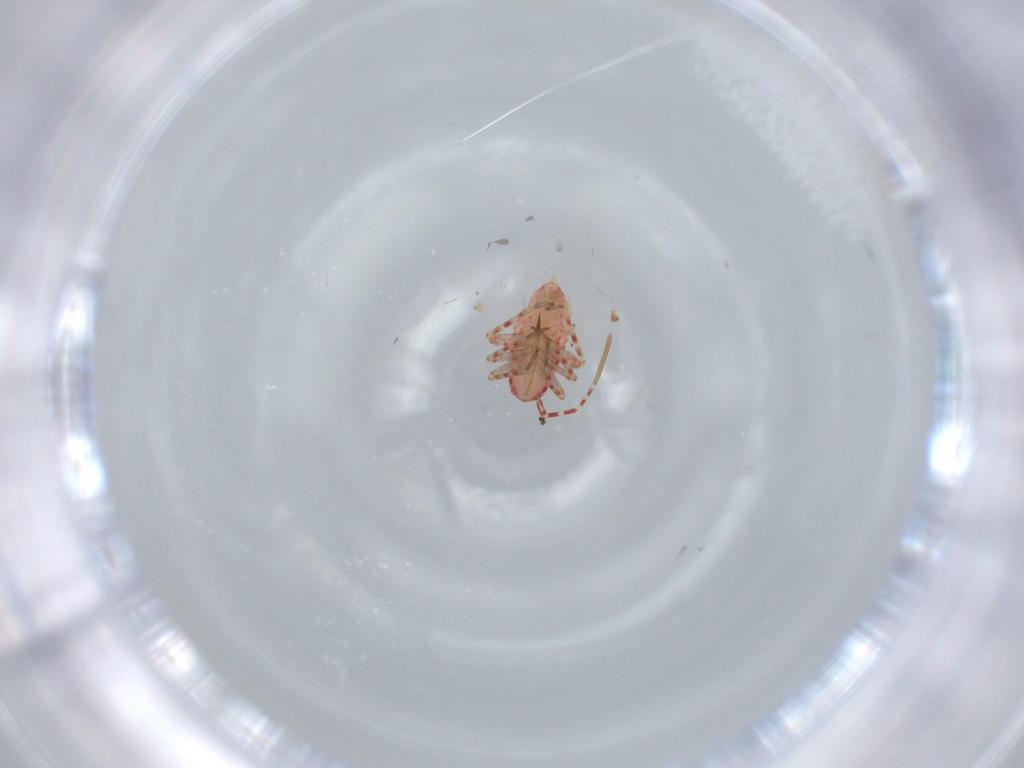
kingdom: Animalia
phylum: Arthropoda
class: Insecta
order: Hemiptera
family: Miridae
